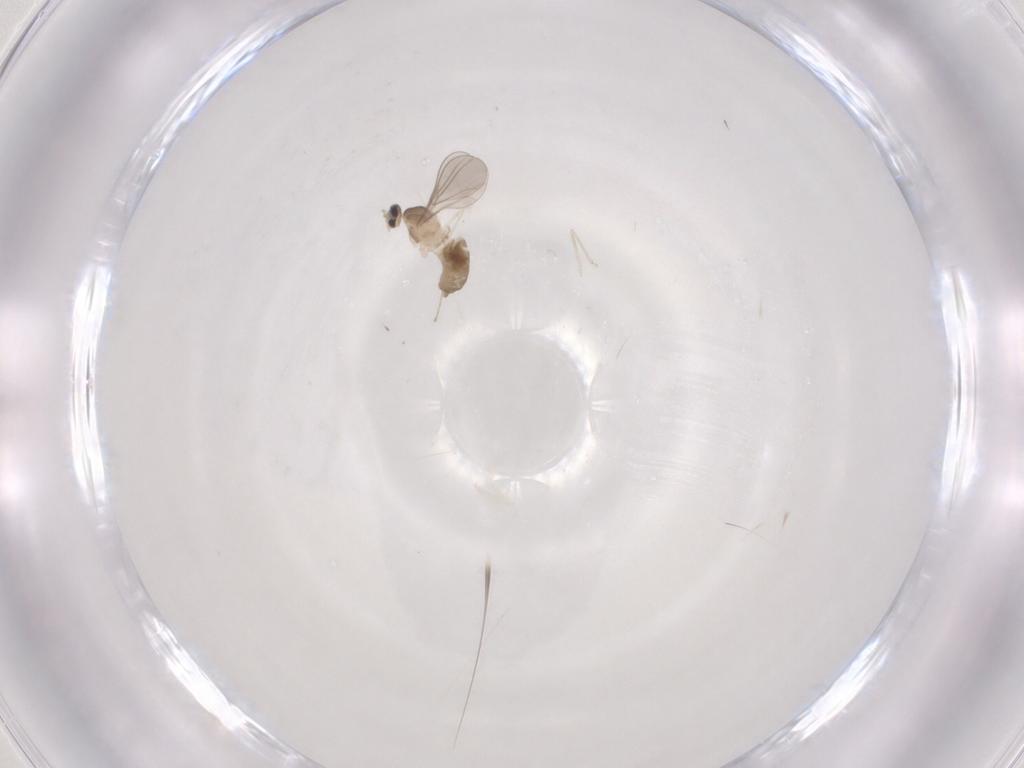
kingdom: Animalia
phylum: Arthropoda
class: Insecta
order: Diptera
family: Cecidomyiidae
